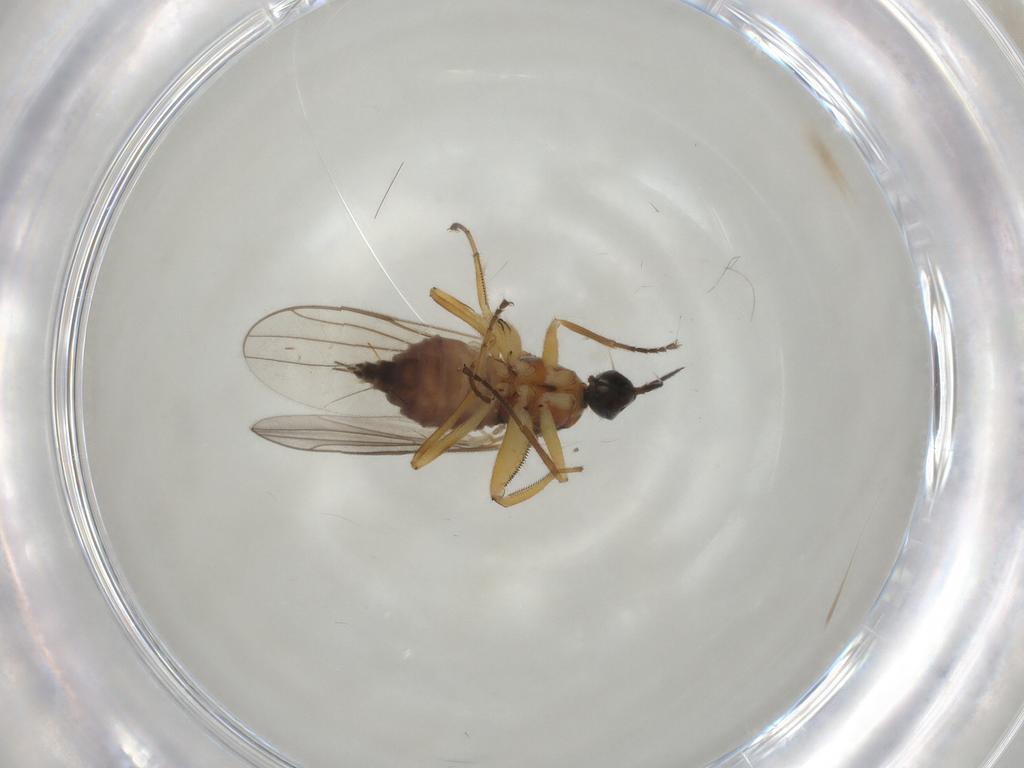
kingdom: Animalia
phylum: Arthropoda
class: Insecta
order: Diptera
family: Hybotidae
